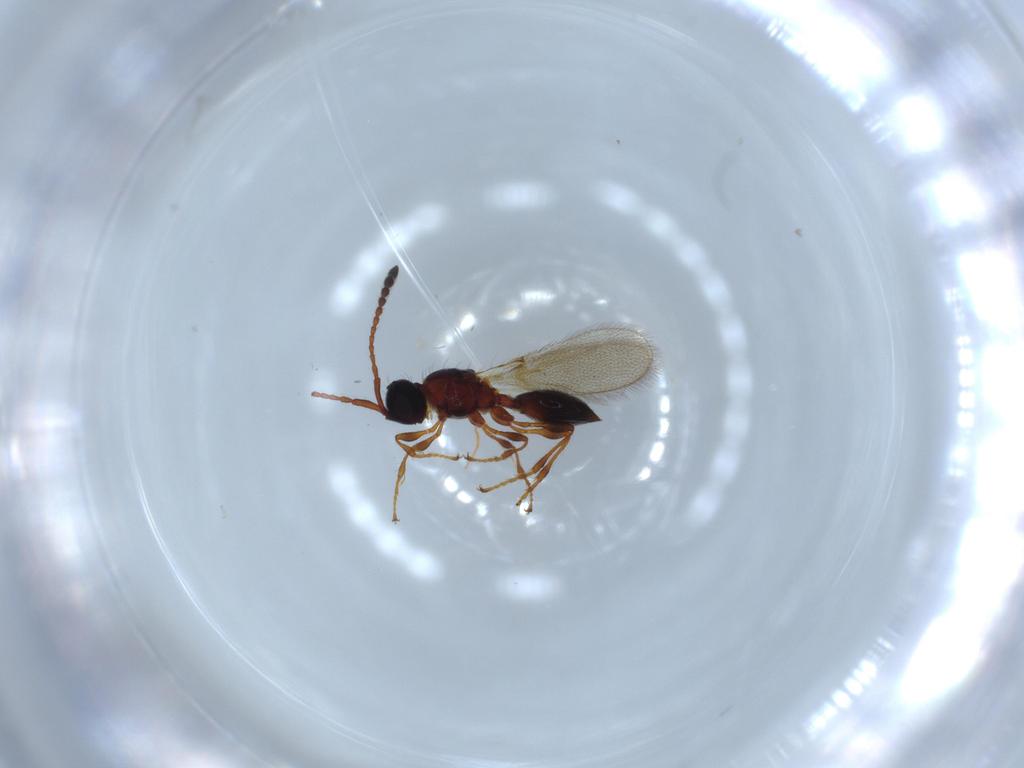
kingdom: Animalia
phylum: Arthropoda
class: Insecta
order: Hymenoptera
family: Diapriidae
